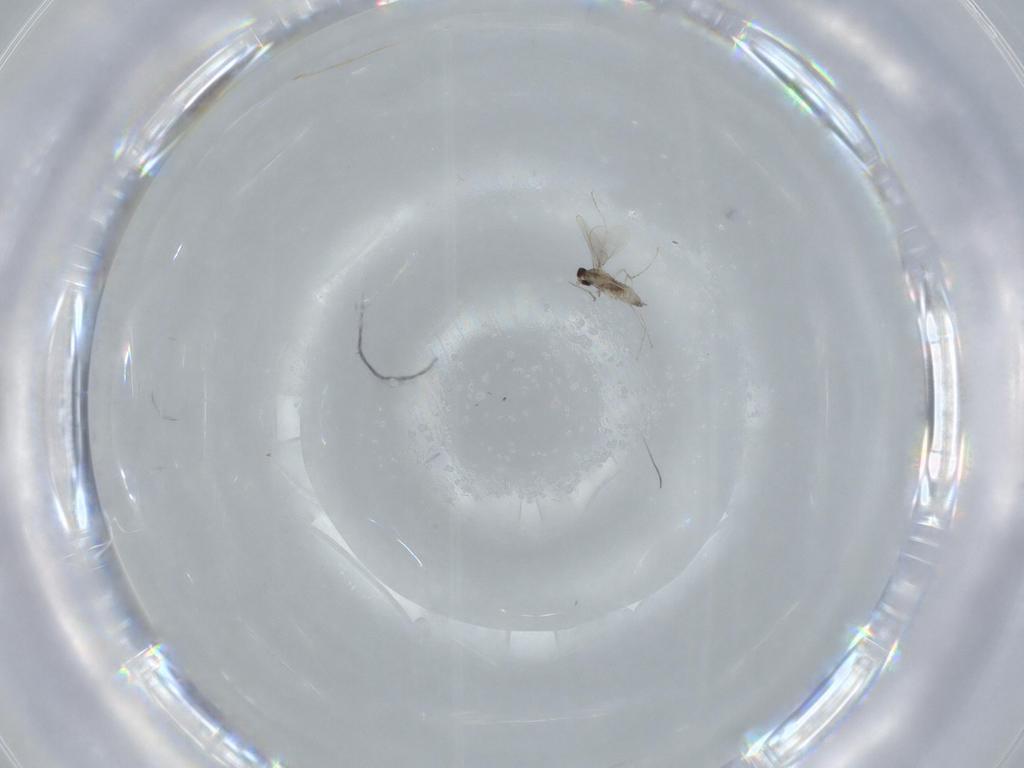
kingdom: Animalia
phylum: Arthropoda
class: Insecta
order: Diptera
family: Cecidomyiidae
